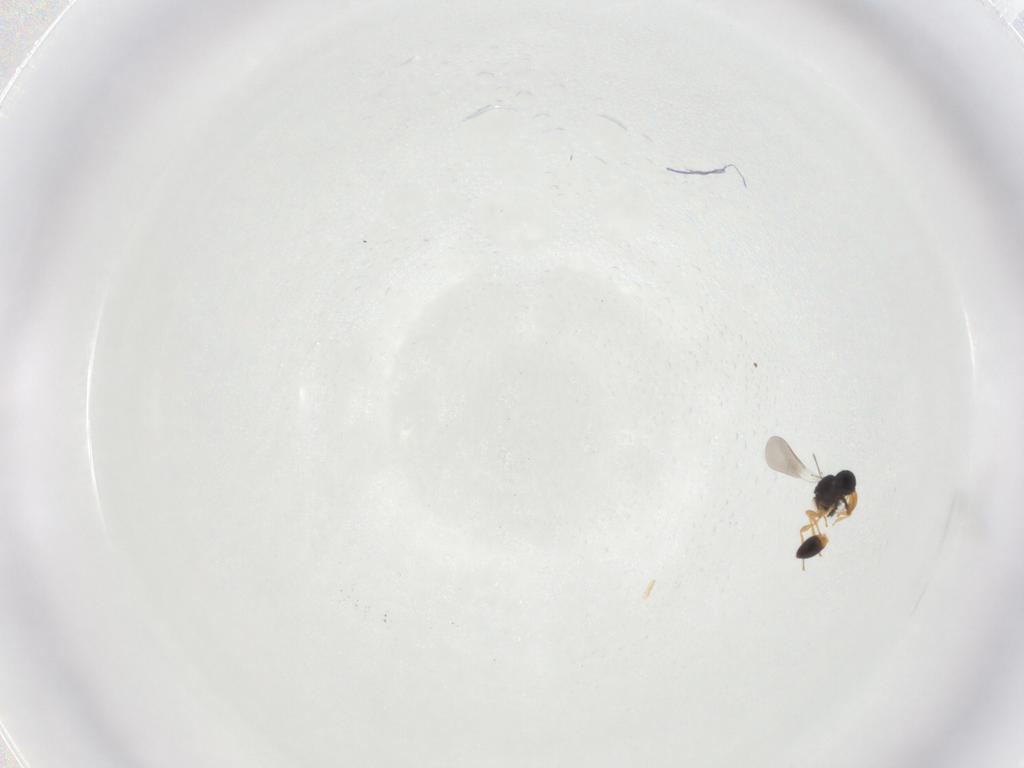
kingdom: Animalia
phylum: Arthropoda
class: Insecta
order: Hymenoptera
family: Platygastridae
